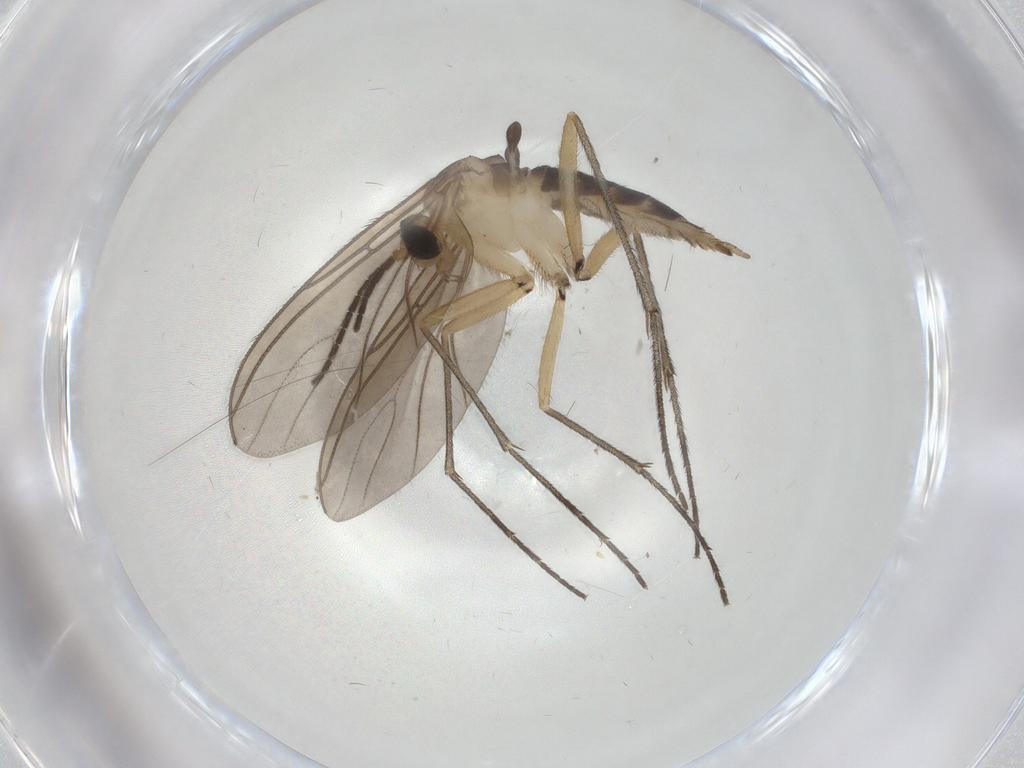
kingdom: Animalia
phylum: Arthropoda
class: Insecta
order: Diptera
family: Sciaridae
